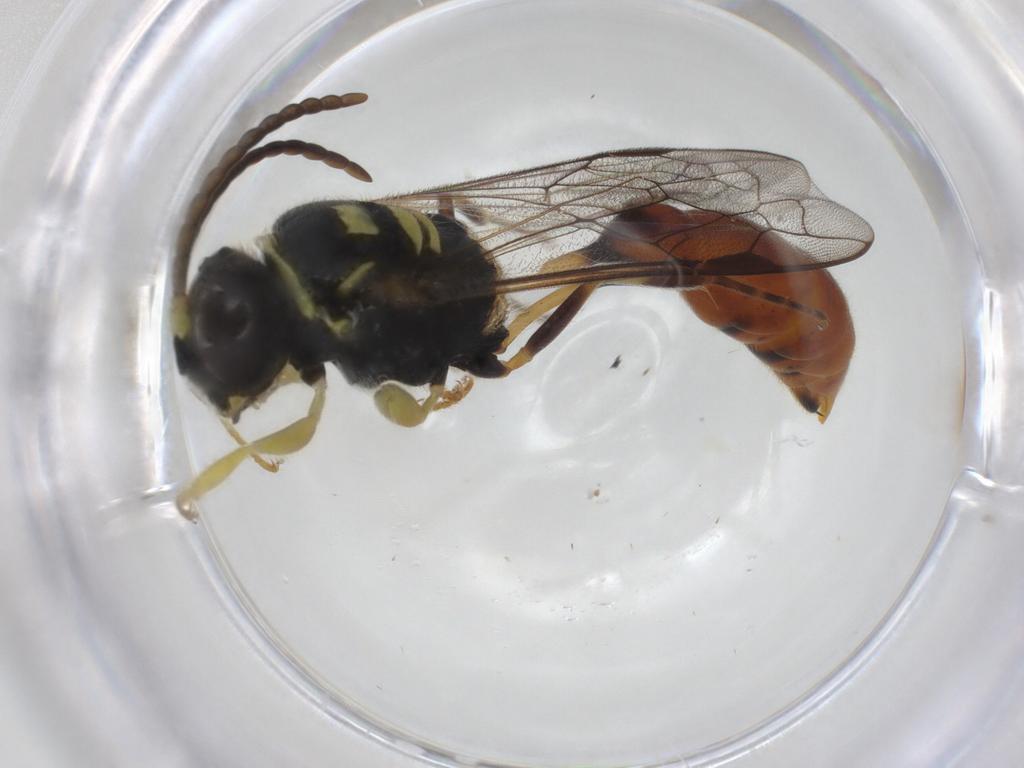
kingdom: Animalia
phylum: Arthropoda
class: Insecta
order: Hymenoptera
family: Crabronidae
